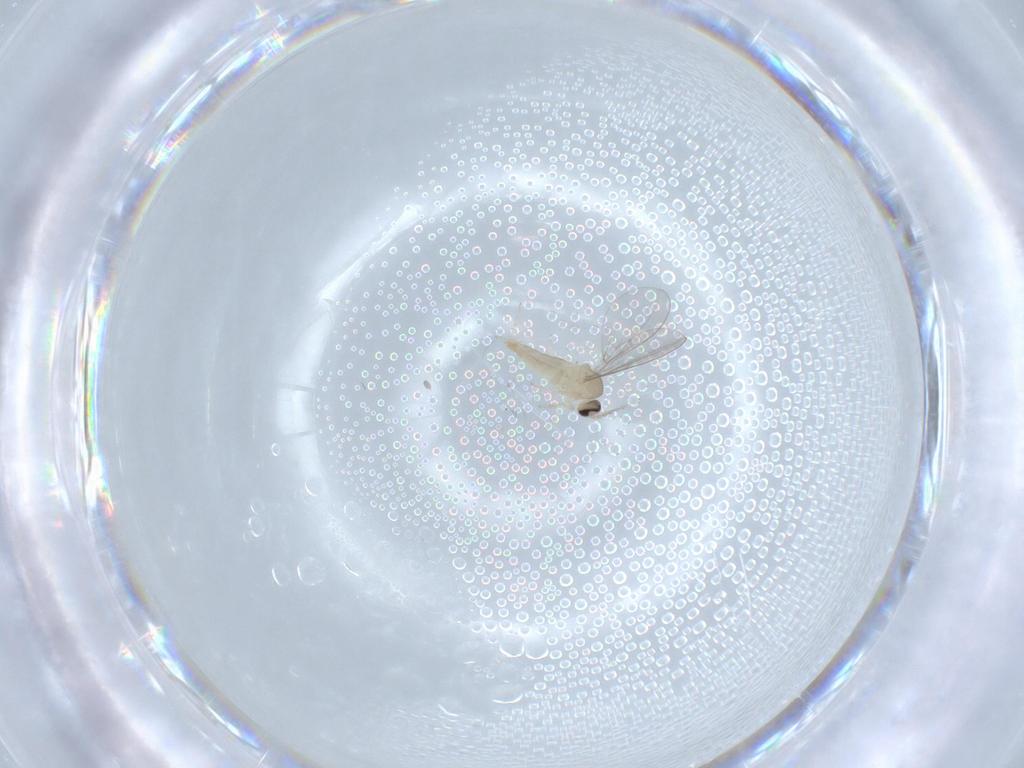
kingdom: Animalia
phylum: Arthropoda
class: Insecta
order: Diptera
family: Cecidomyiidae
